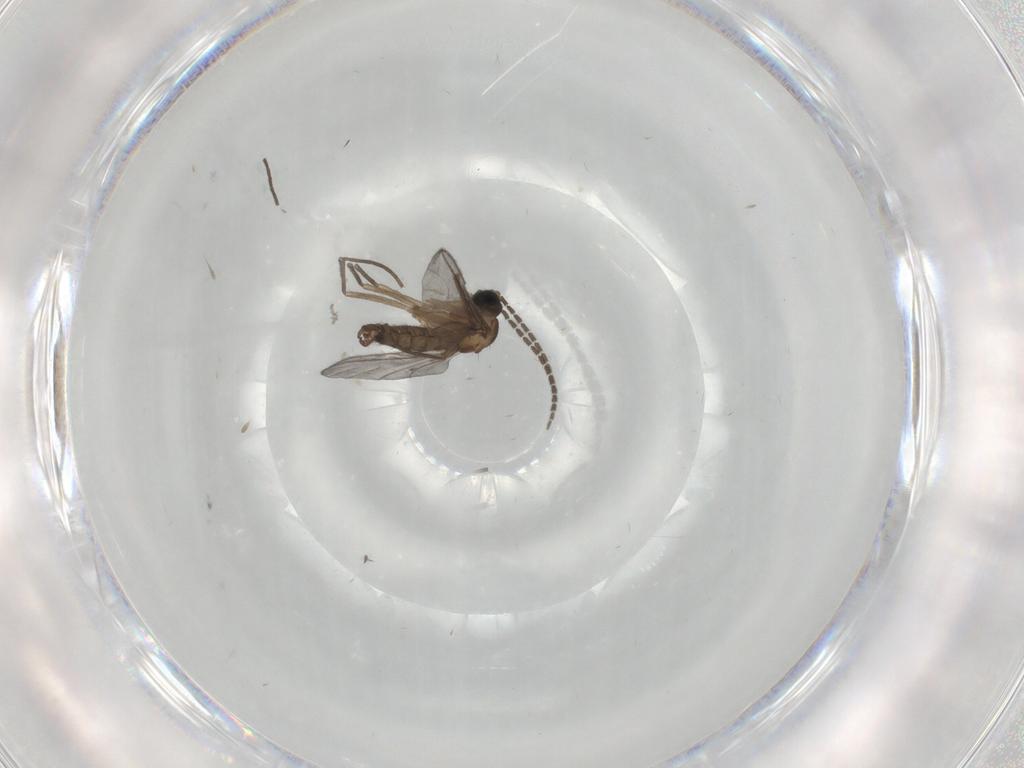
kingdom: Animalia
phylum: Arthropoda
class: Insecta
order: Diptera
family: Sciaridae
